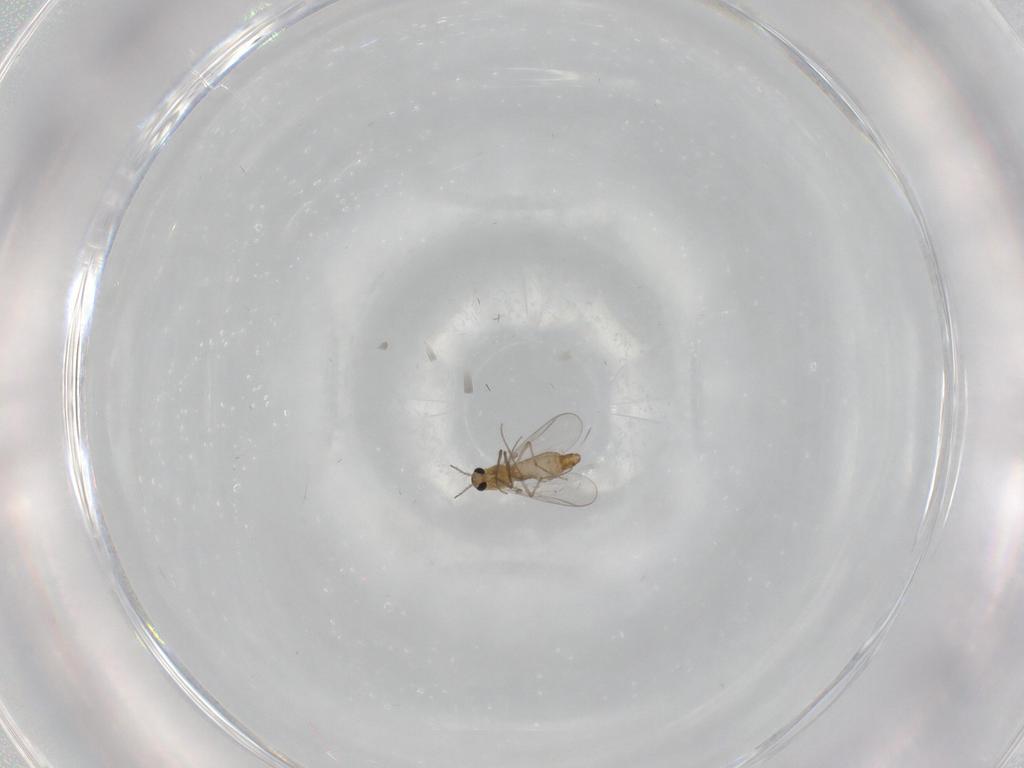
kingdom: Animalia
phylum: Arthropoda
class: Insecta
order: Diptera
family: Chironomidae
